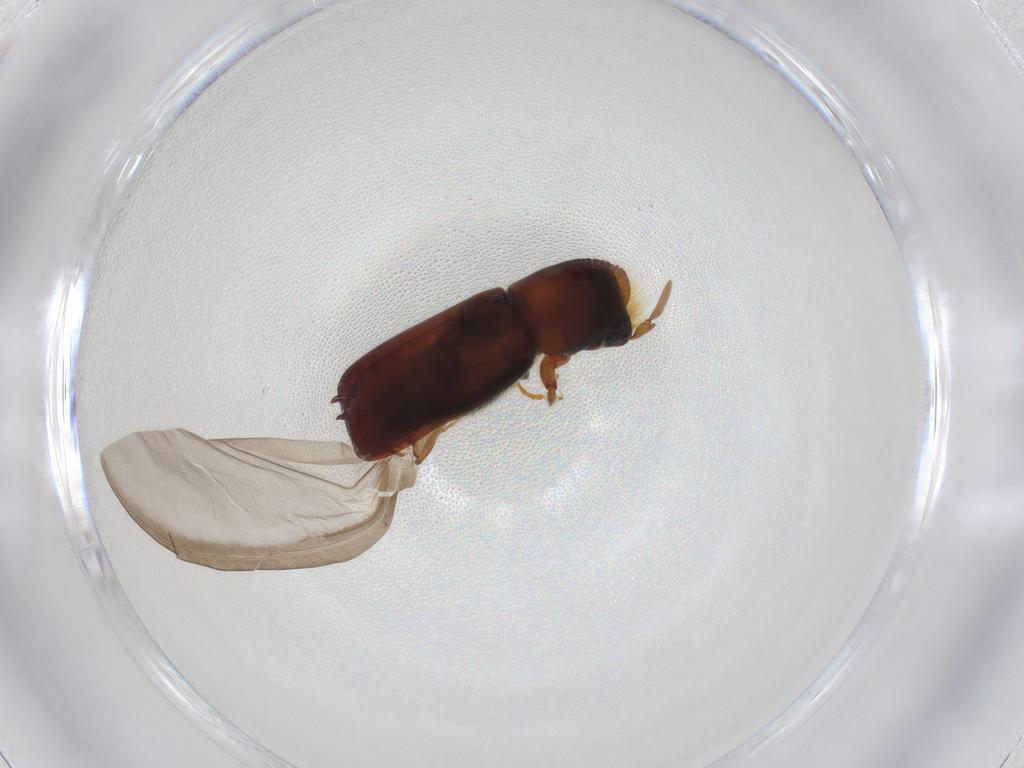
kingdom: Animalia
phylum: Arthropoda
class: Insecta
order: Coleoptera
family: Curculionidae
